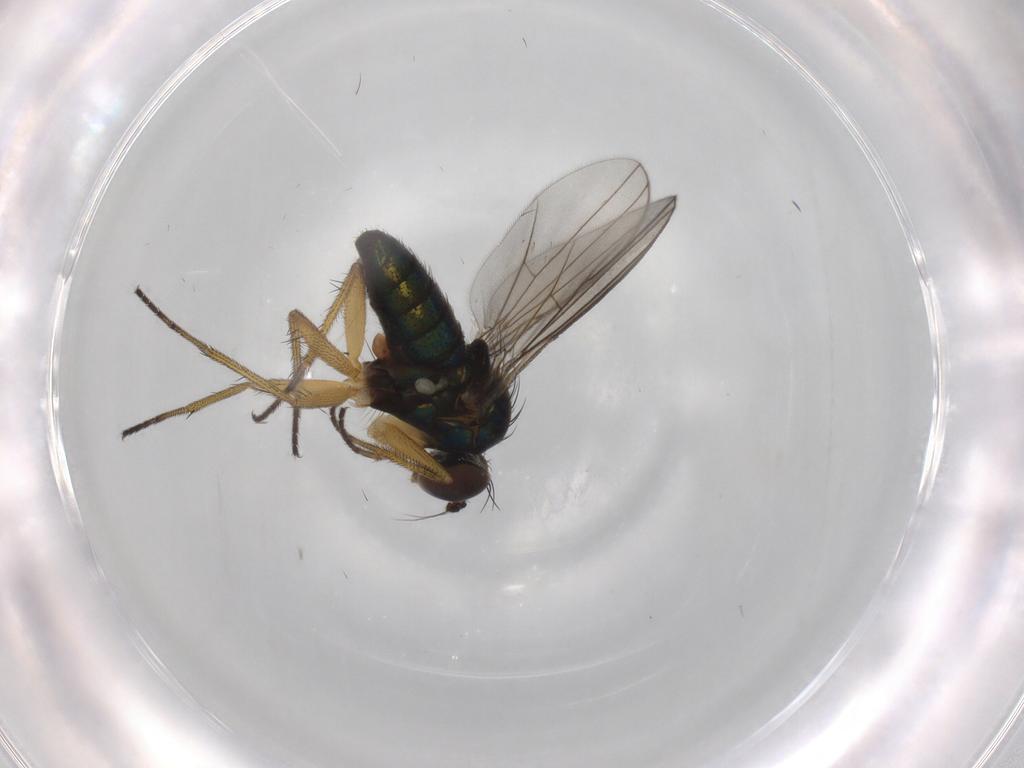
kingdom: Animalia
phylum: Arthropoda
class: Insecta
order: Diptera
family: Dolichopodidae
